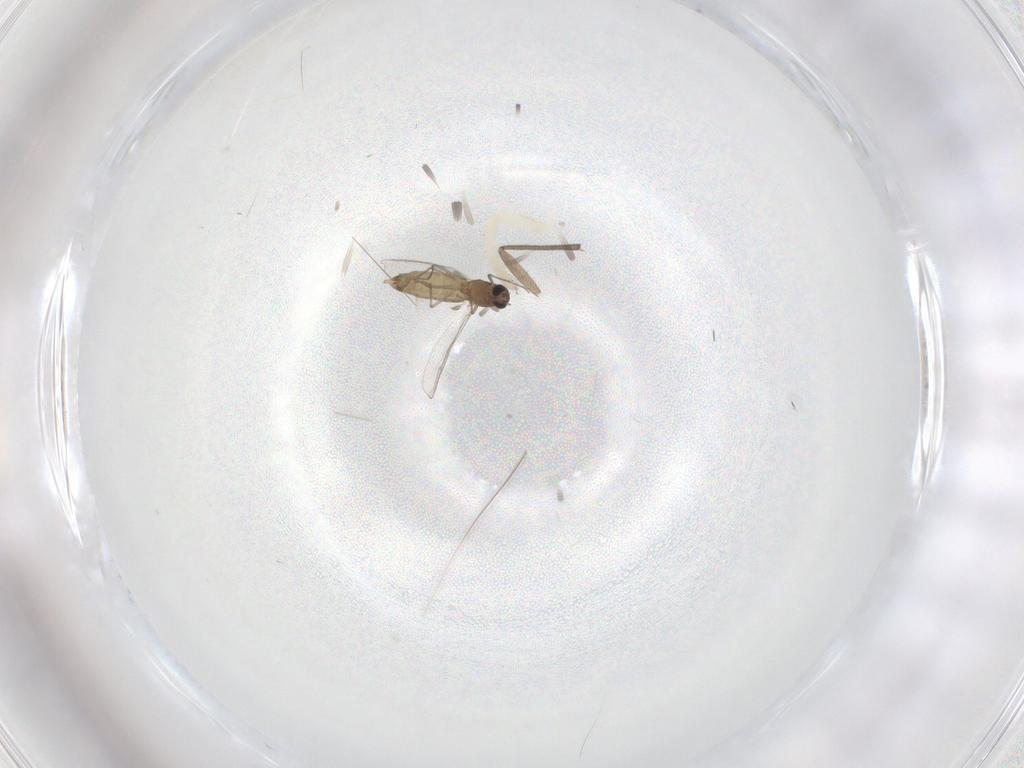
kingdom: Animalia
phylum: Arthropoda
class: Insecta
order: Diptera
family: Chironomidae
